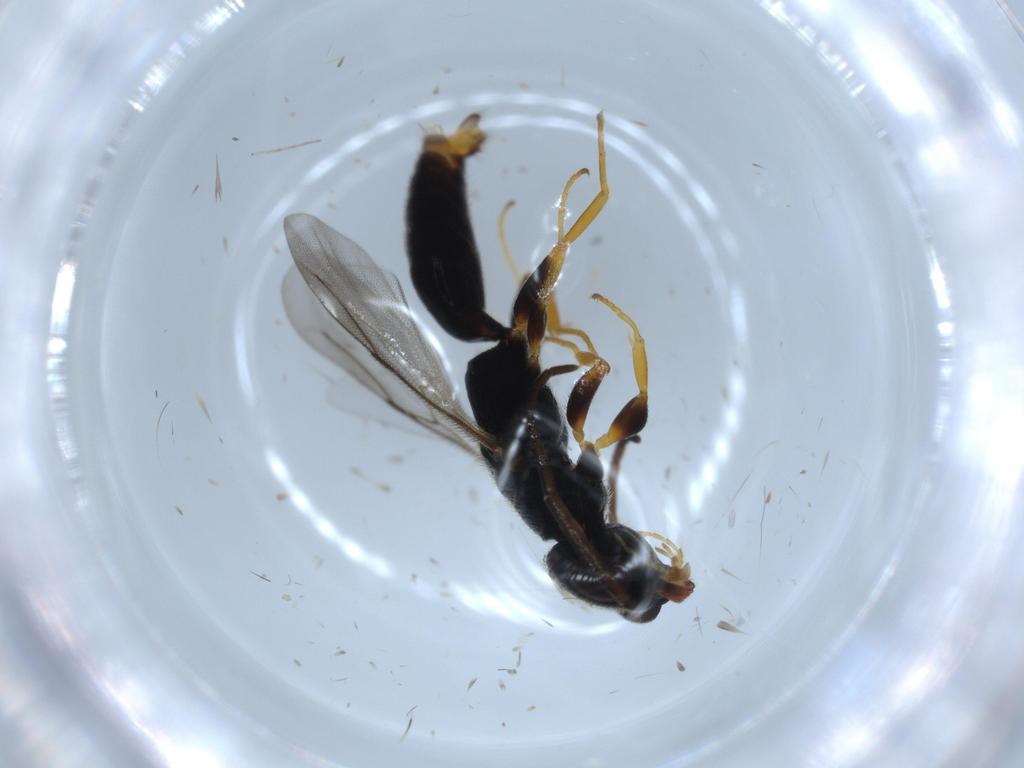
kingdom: Animalia
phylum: Arthropoda
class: Insecta
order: Hymenoptera
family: Bethylidae
